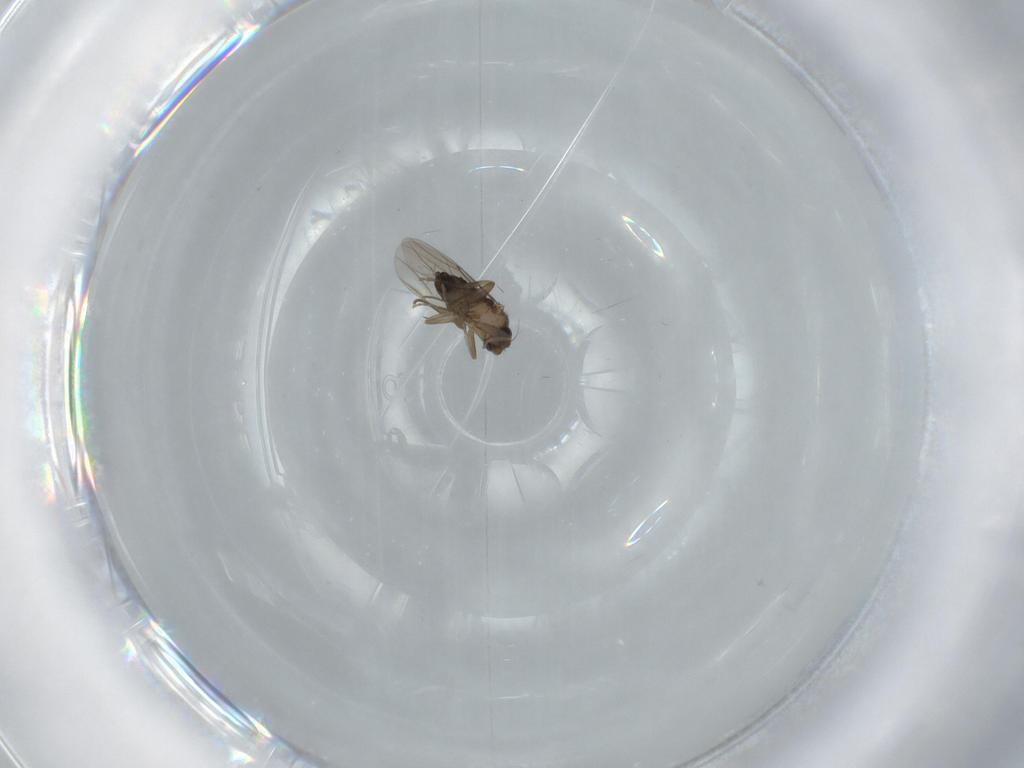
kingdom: Animalia
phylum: Arthropoda
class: Insecta
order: Diptera
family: Phoridae
